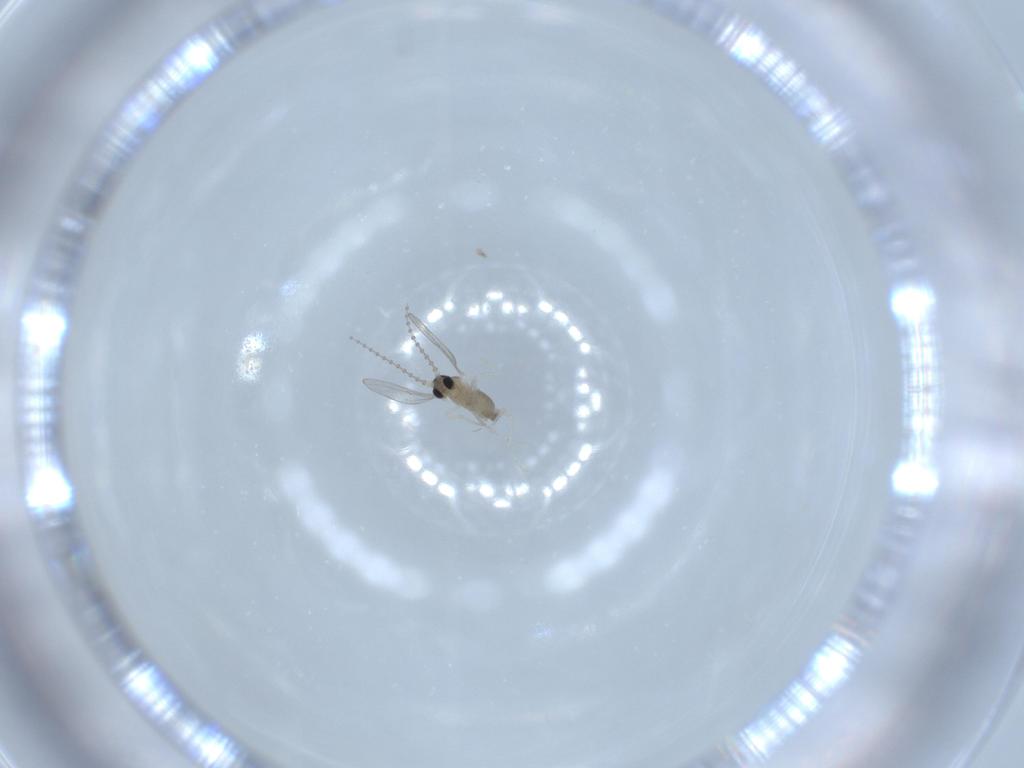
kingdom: Animalia
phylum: Arthropoda
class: Insecta
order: Diptera
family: Cecidomyiidae
